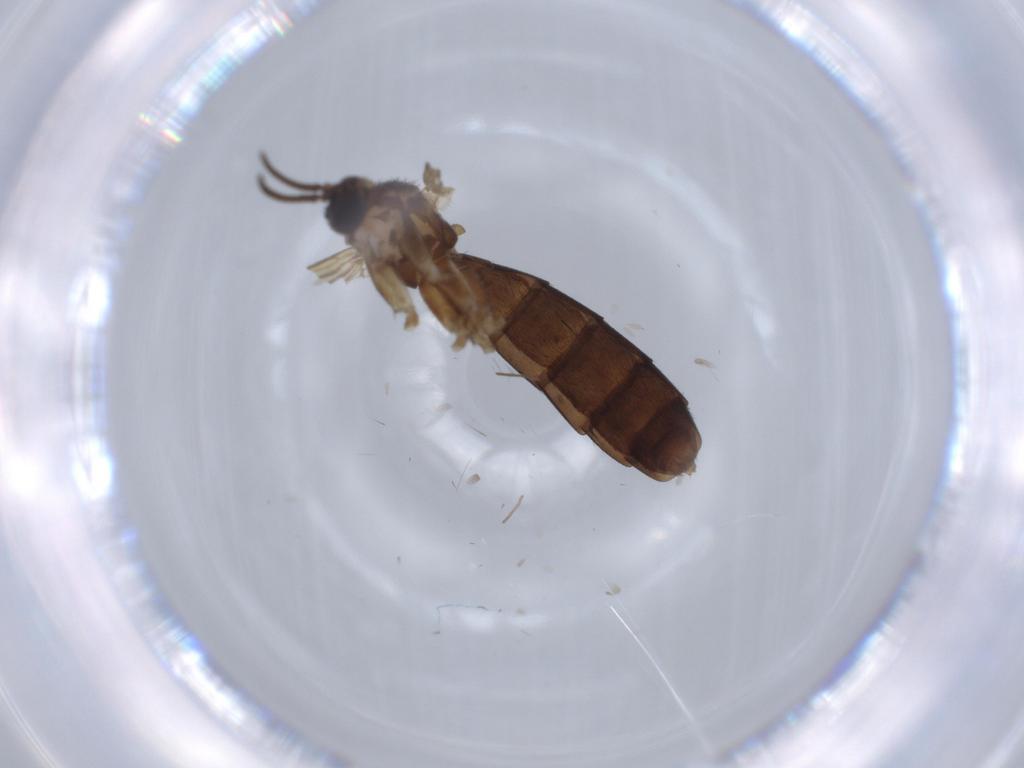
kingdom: Animalia
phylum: Arthropoda
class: Insecta
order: Diptera
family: Keroplatidae
